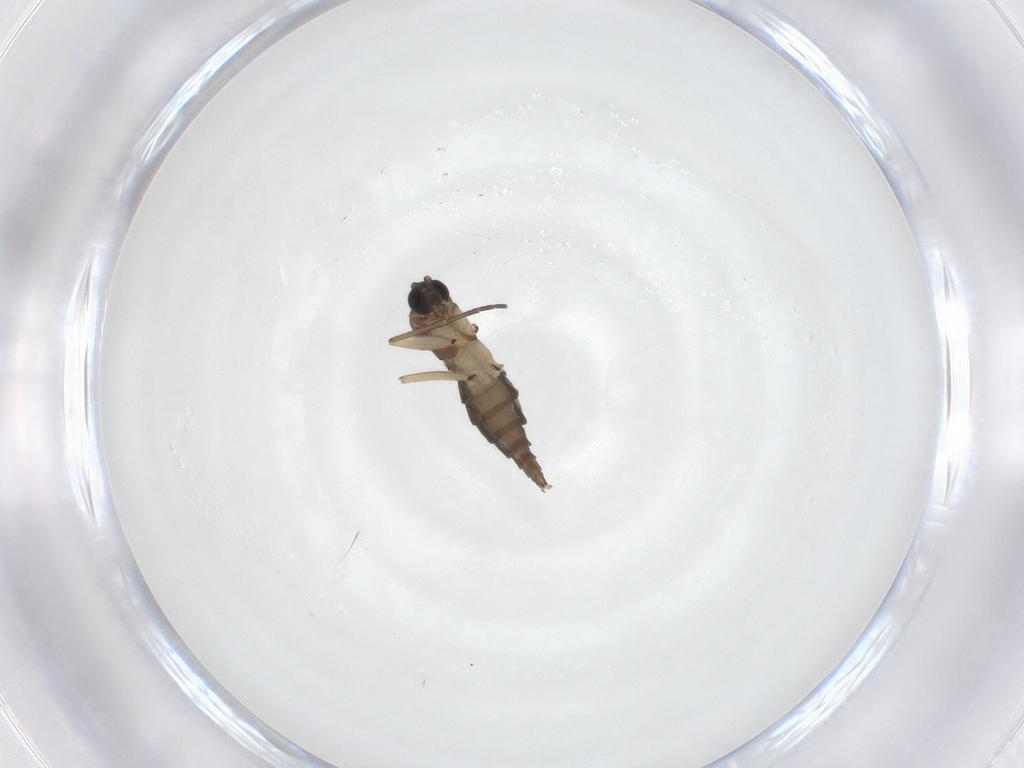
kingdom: Animalia
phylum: Arthropoda
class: Insecta
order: Diptera
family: Sciaridae
